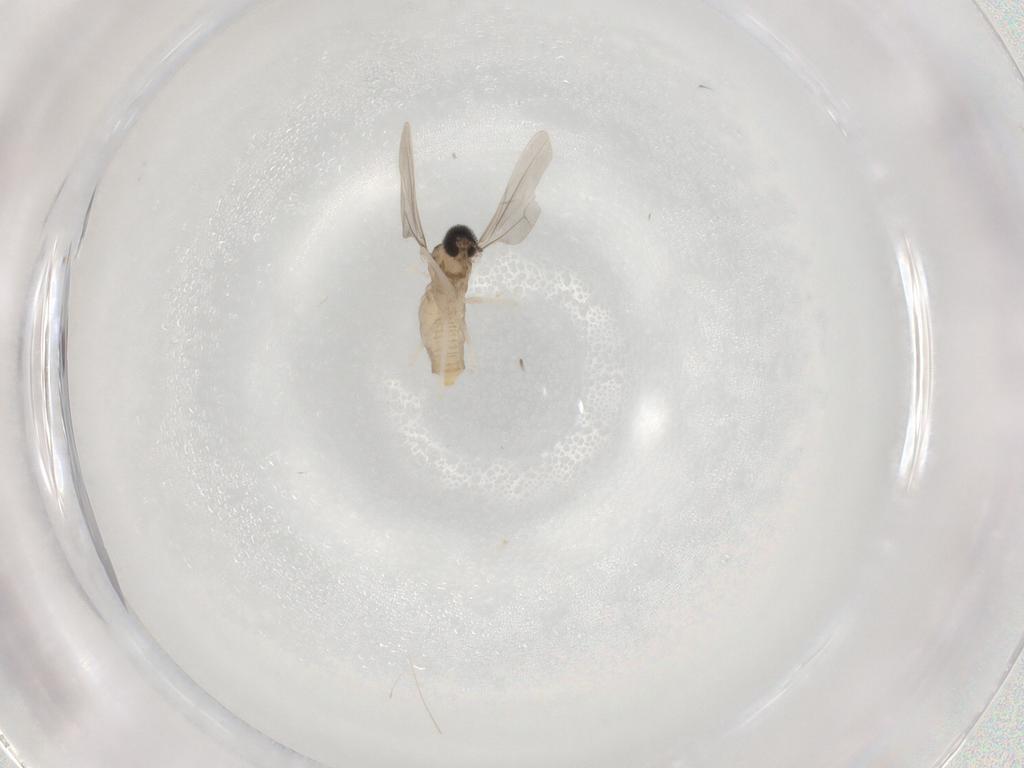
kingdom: Animalia
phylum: Arthropoda
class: Insecta
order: Diptera
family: Cecidomyiidae
